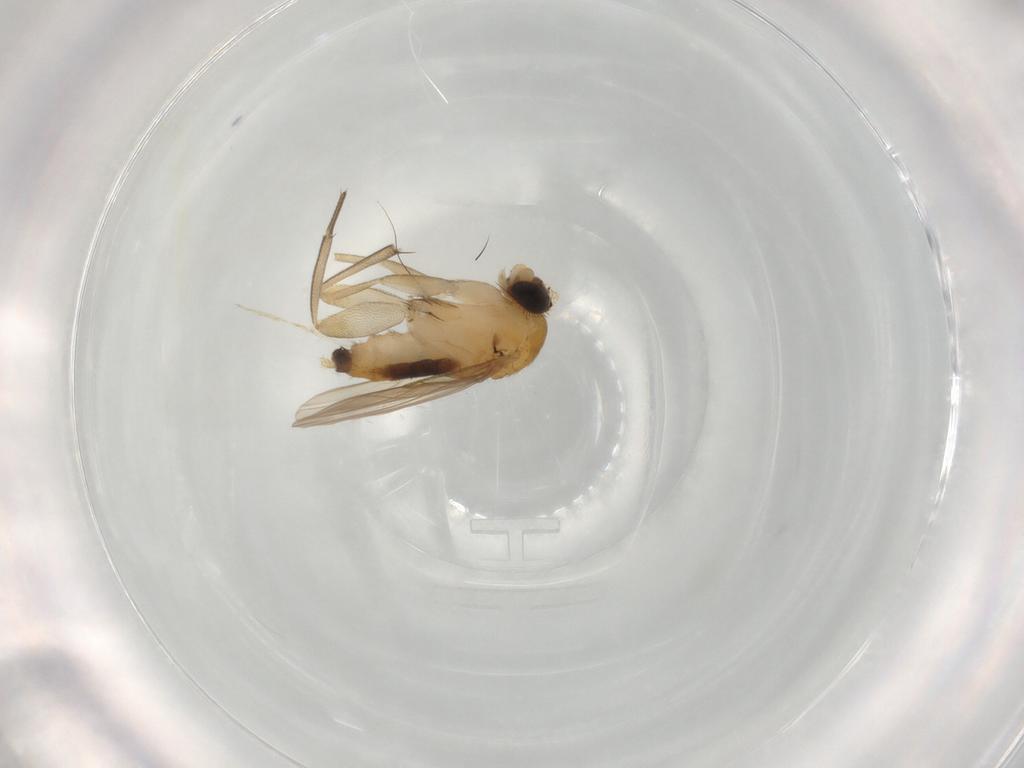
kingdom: Animalia
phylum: Arthropoda
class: Insecta
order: Diptera
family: Phoridae
